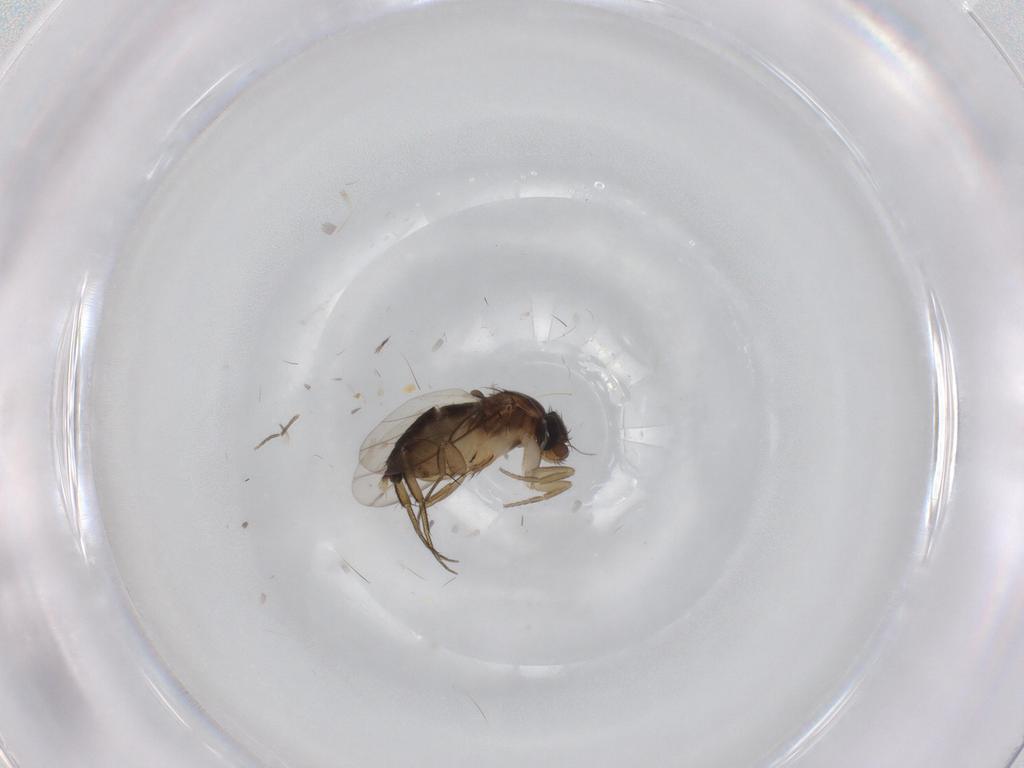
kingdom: Animalia
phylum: Arthropoda
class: Insecta
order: Diptera
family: Phoridae
